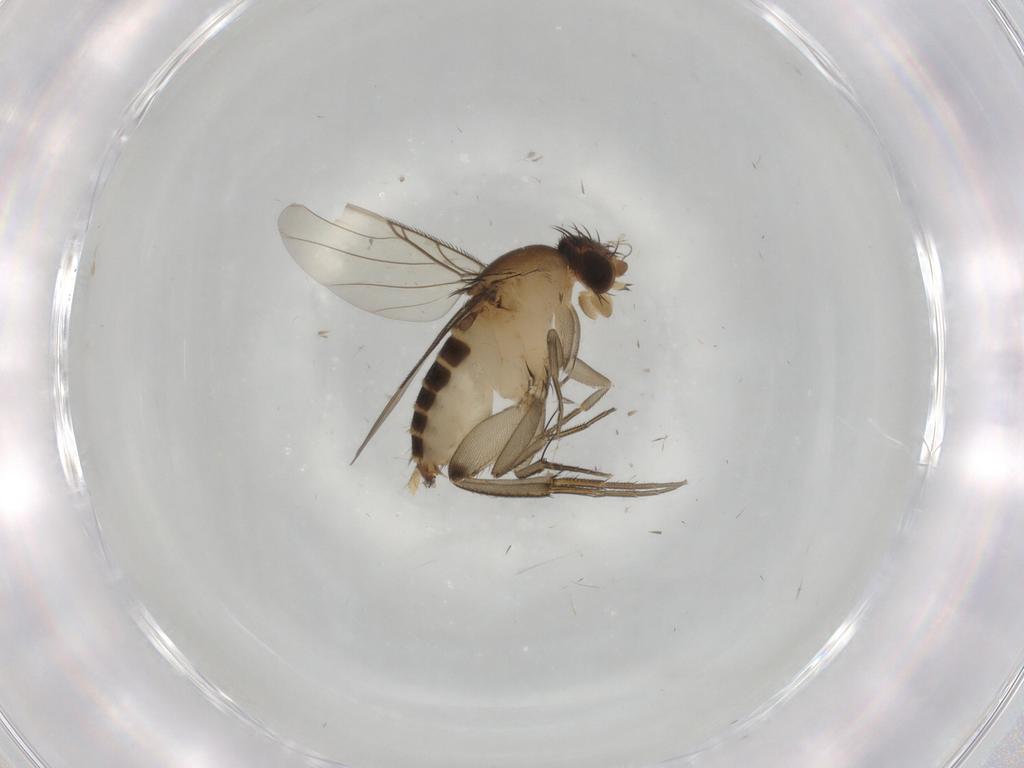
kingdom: Animalia
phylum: Arthropoda
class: Insecta
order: Diptera
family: Phoridae
